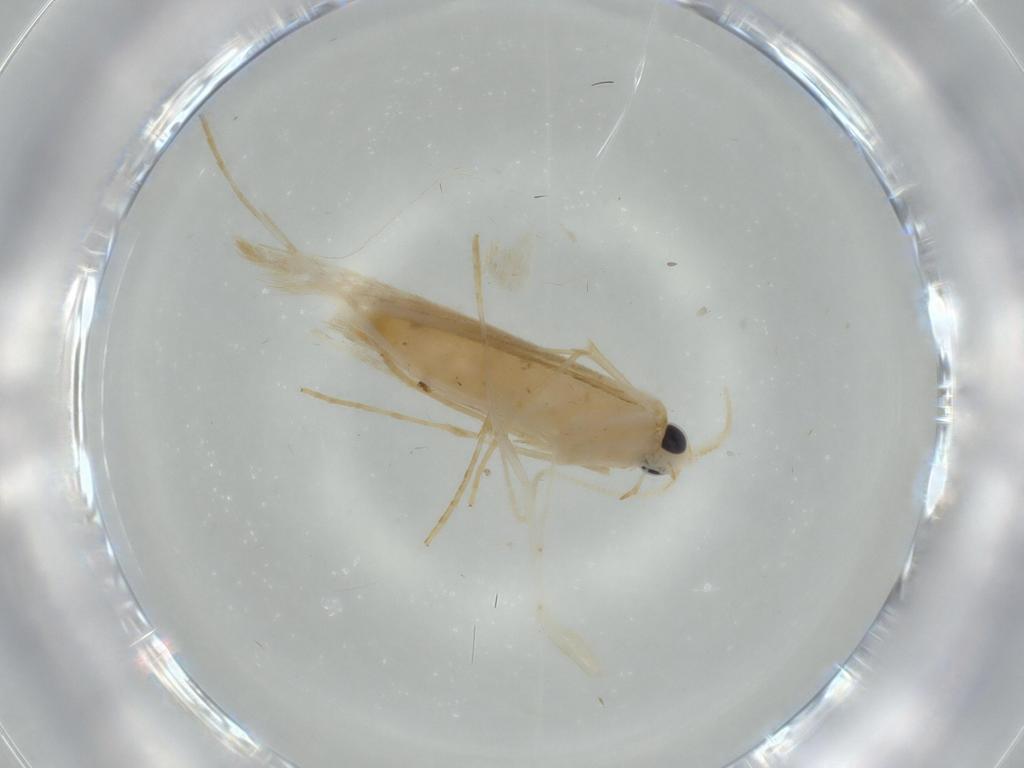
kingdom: Animalia
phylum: Arthropoda
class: Insecta
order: Lepidoptera
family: Lyonetiidae
